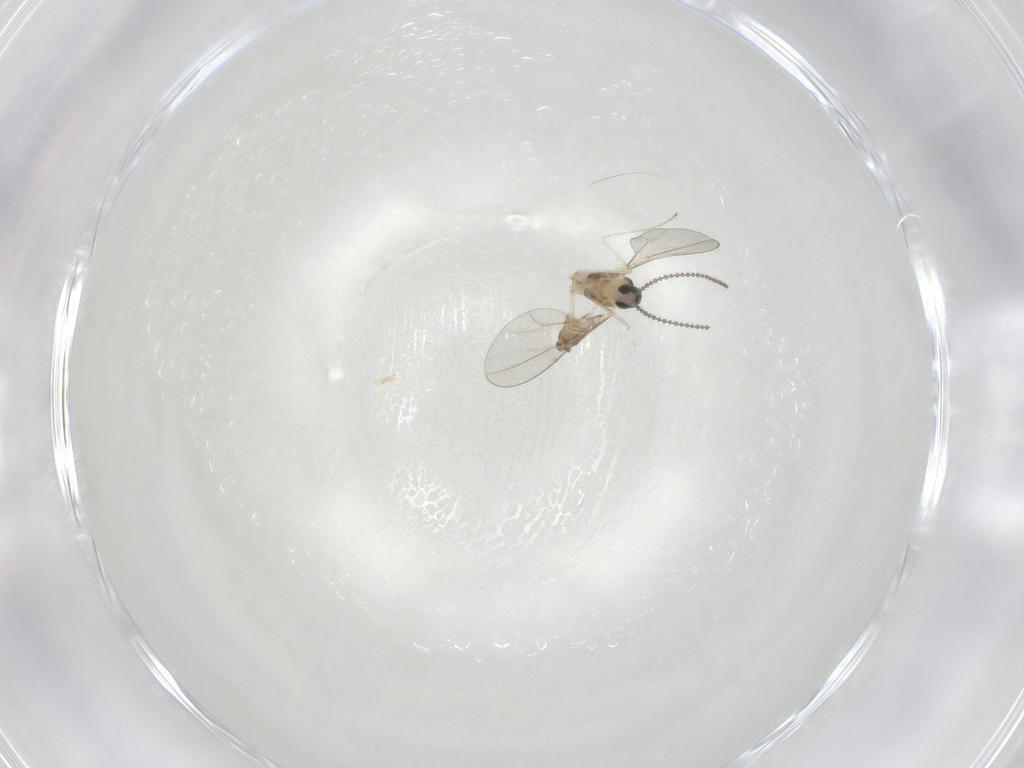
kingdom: Animalia
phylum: Arthropoda
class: Insecta
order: Diptera
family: Cecidomyiidae
